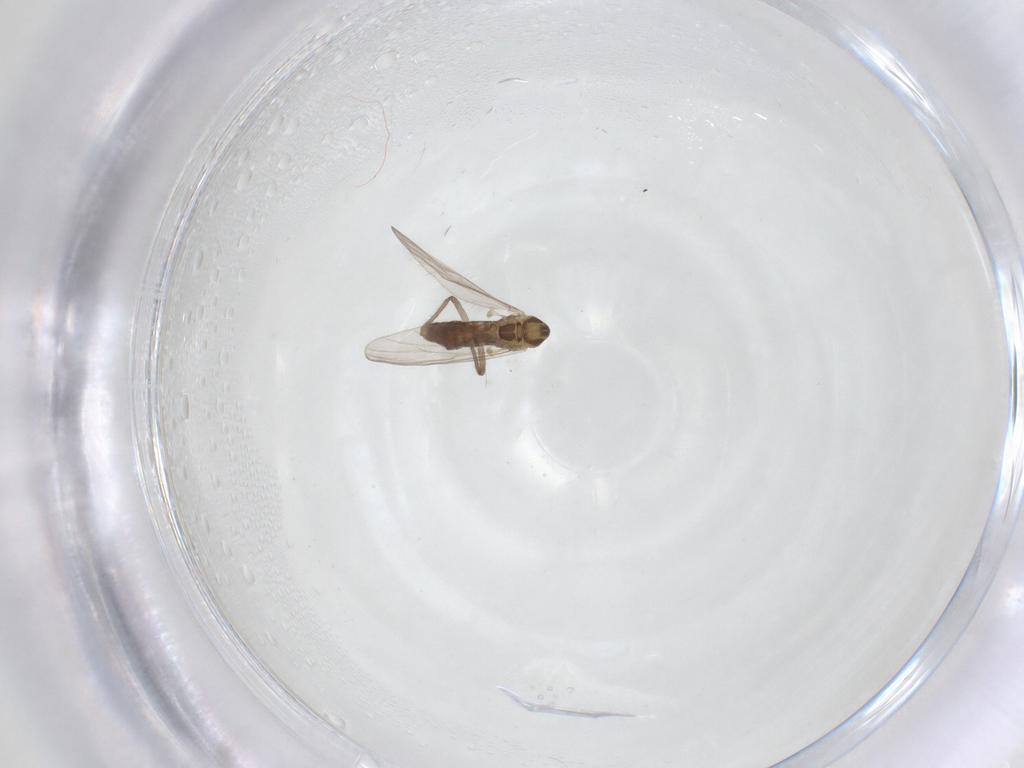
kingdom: Animalia
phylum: Arthropoda
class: Insecta
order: Diptera
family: Chironomidae
